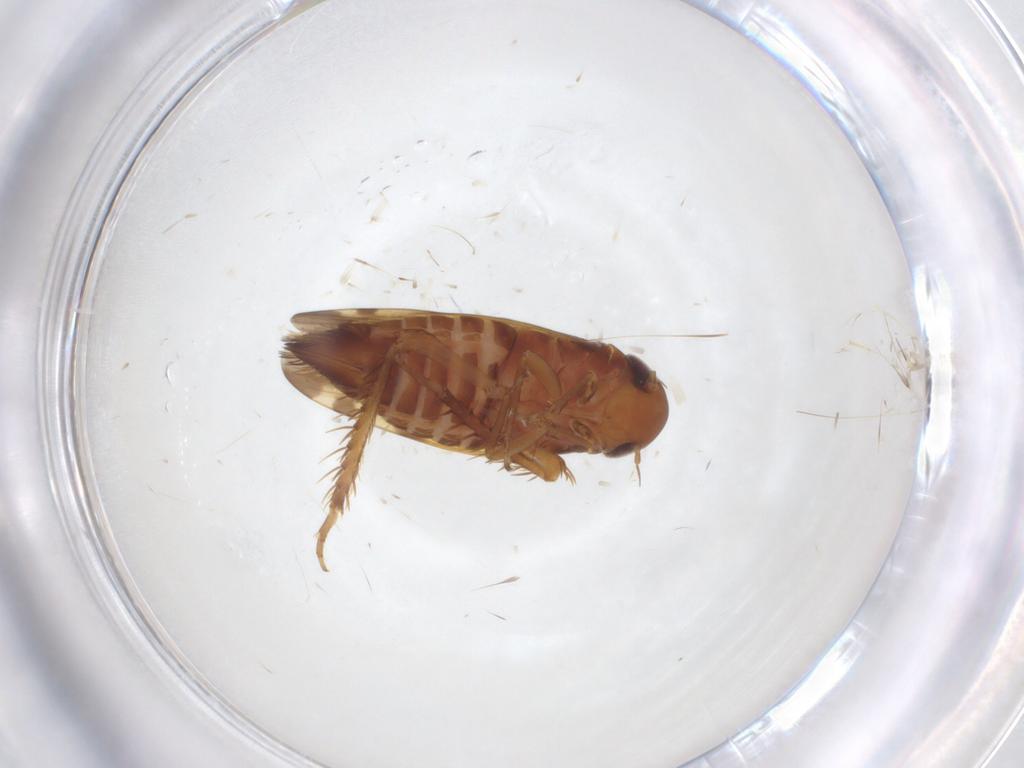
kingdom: Animalia
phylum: Arthropoda
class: Insecta
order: Hemiptera
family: Cicadellidae
